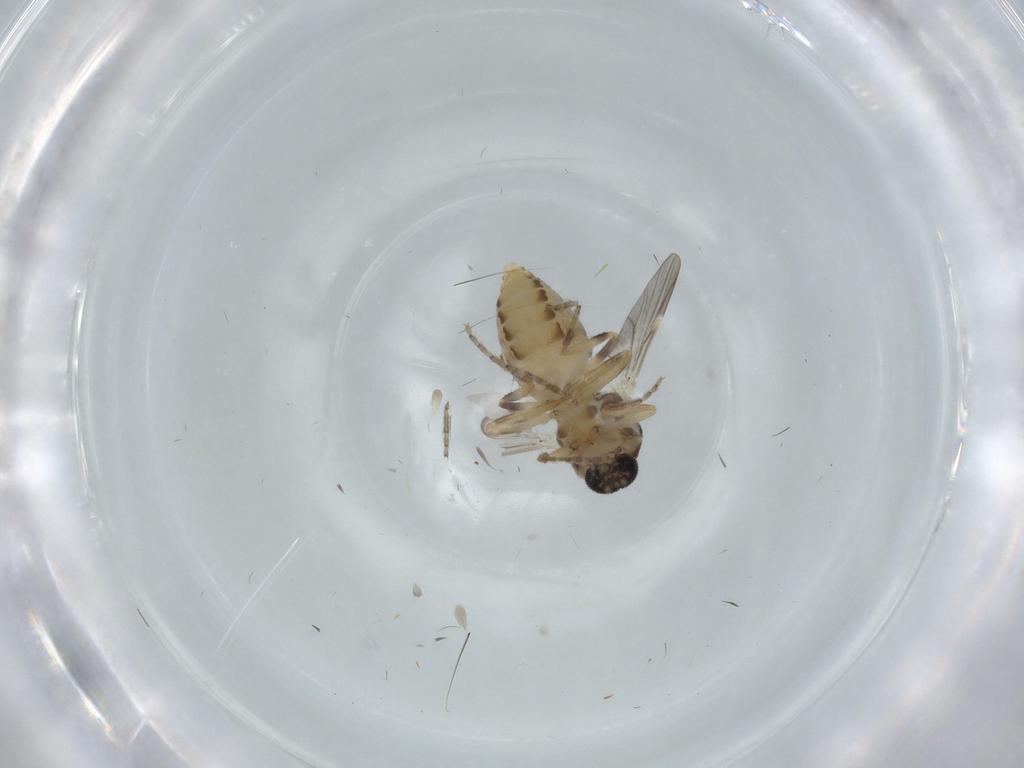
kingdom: Animalia
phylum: Arthropoda
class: Insecta
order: Diptera
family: Ceratopogonidae
